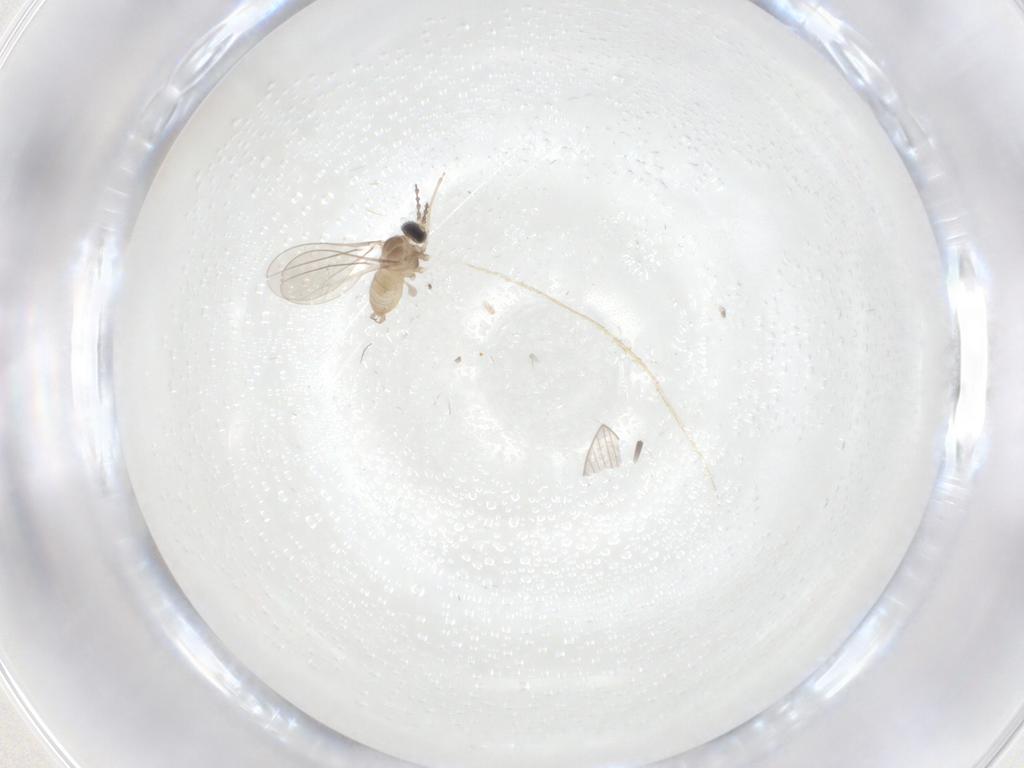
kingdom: Animalia
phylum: Arthropoda
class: Insecta
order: Diptera
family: Psychodidae
